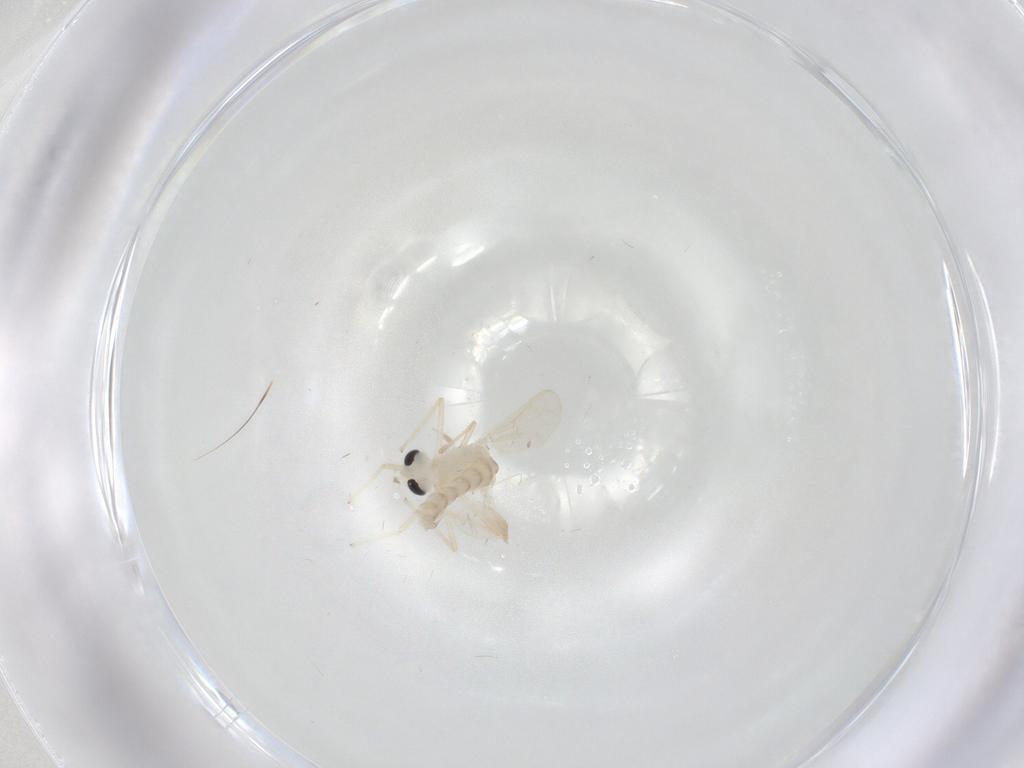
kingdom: Animalia
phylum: Arthropoda
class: Insecta
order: Diptera
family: Chironomidae
